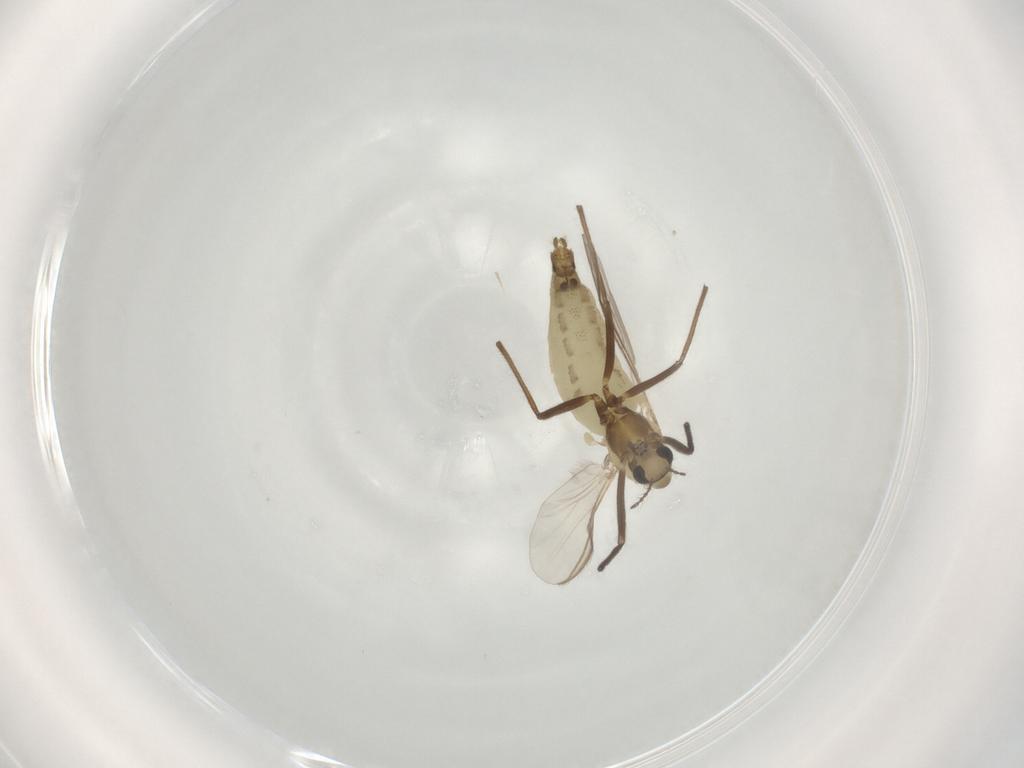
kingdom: Animalia
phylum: Arthropoda
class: Insecta
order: Diptera
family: Chironomidae
